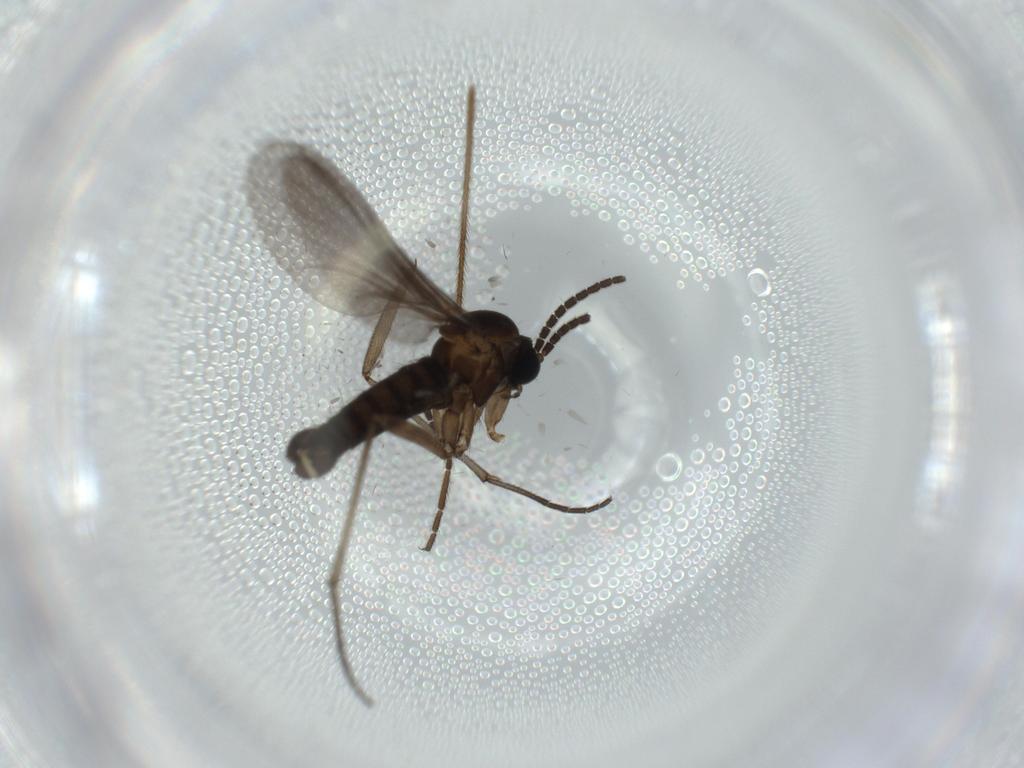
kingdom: Animalia
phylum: Arthropoda
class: Insecta
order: Diptera
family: Sciaridae
